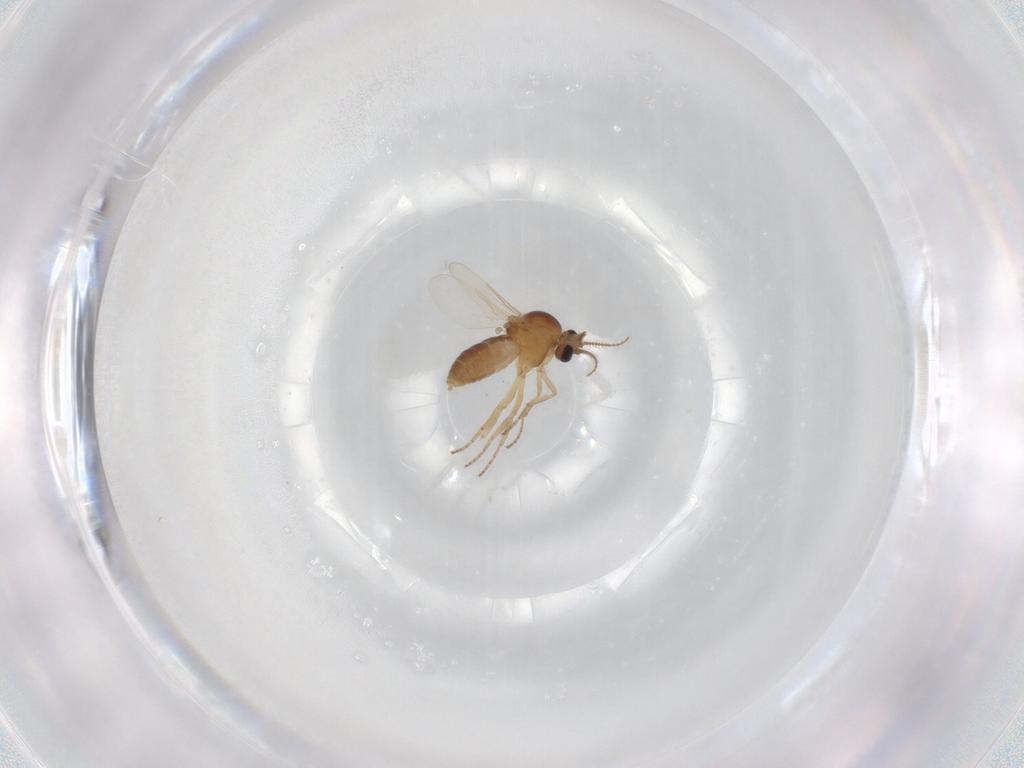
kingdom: Animalia
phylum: Arthropoda
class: Insecta
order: Diptera
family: Ceratopogonidae
